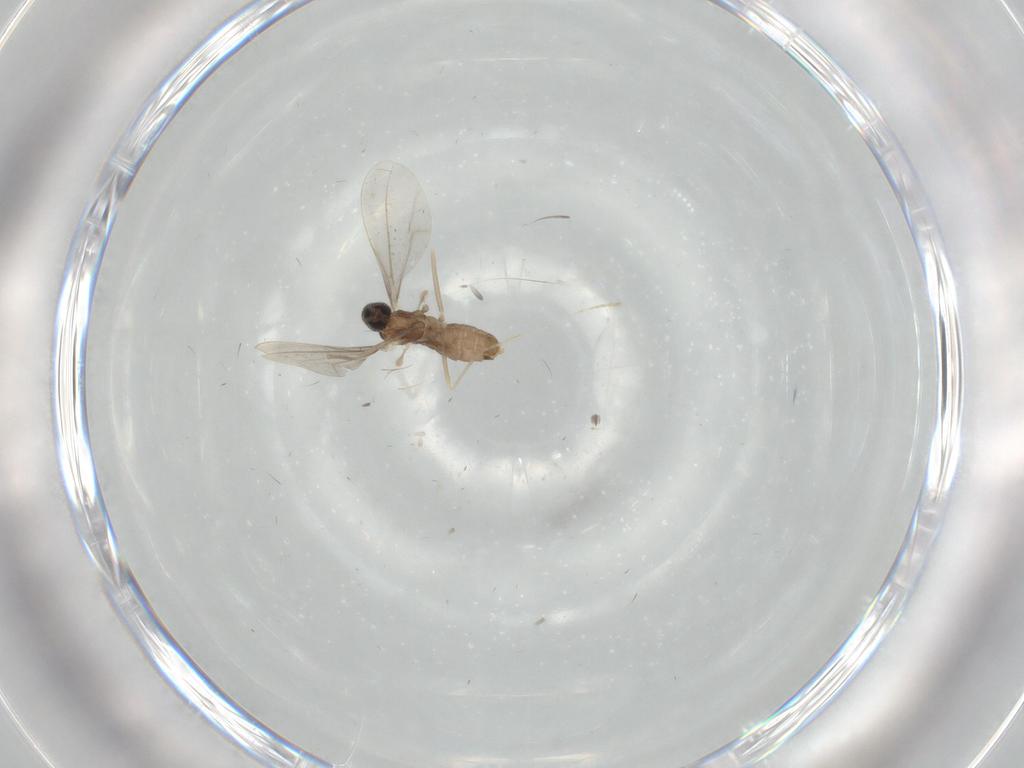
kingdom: Animalia
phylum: Arthropoda
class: Insecta
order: Diptera
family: Cecidomyiidae
